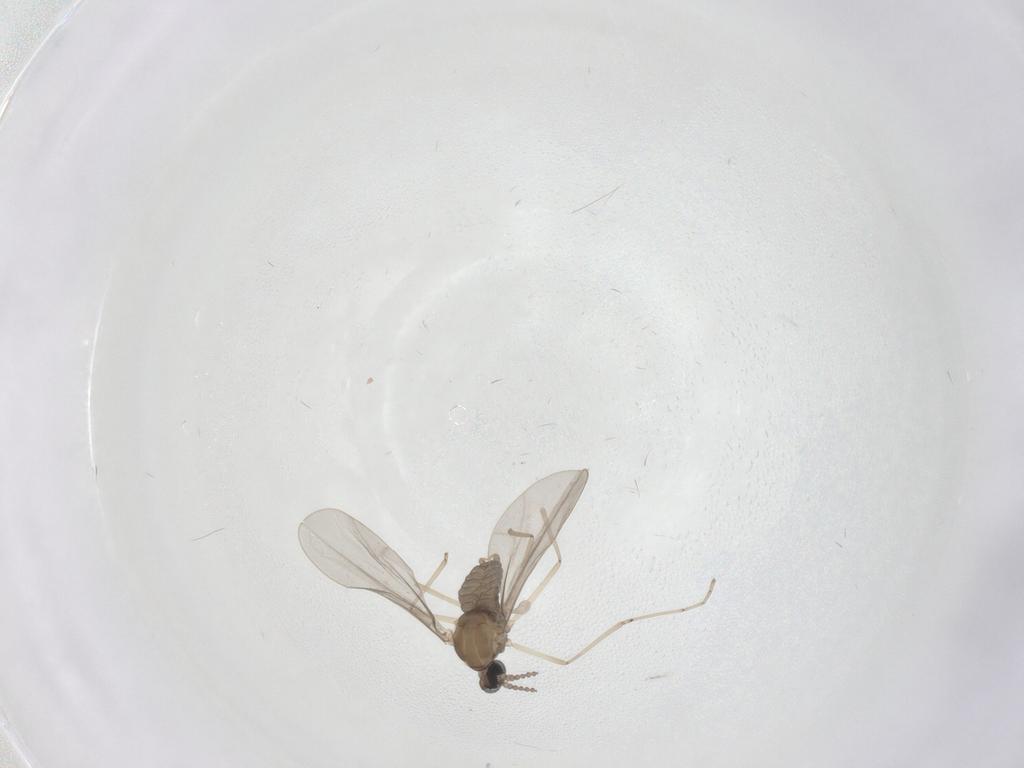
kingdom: Animalia
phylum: Arthropoda
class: Insecta
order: Diptera
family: Cecidomyiidae
